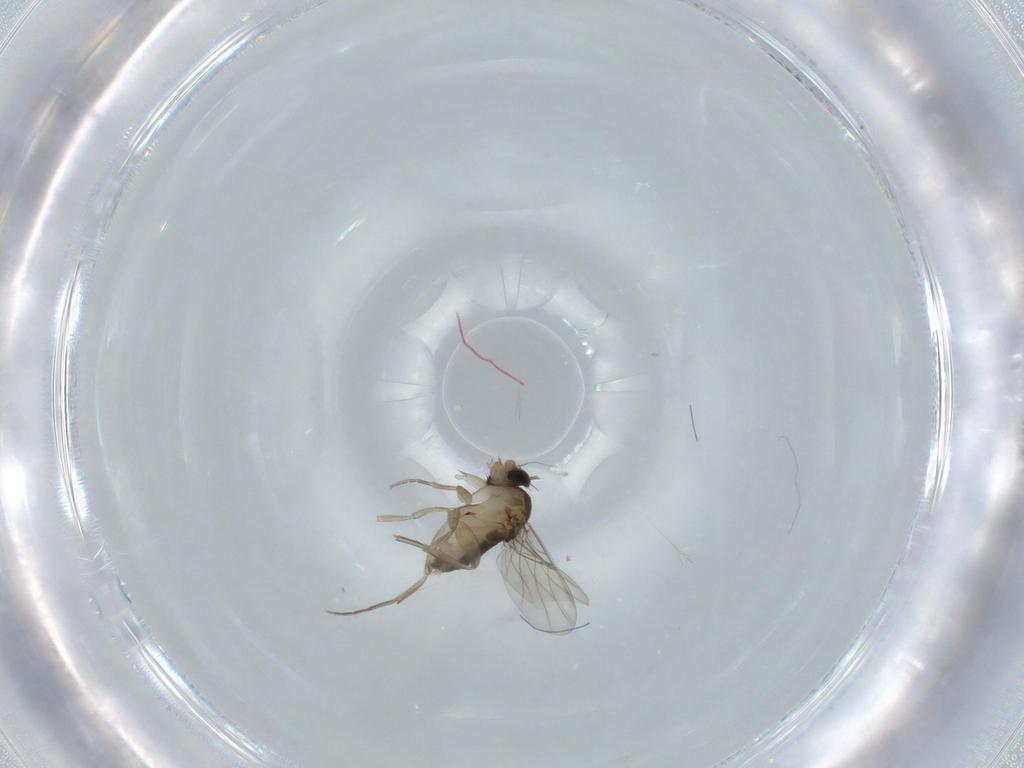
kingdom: Animalia
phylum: Arthropoda
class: Insecta
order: Diptera
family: Phoridae
